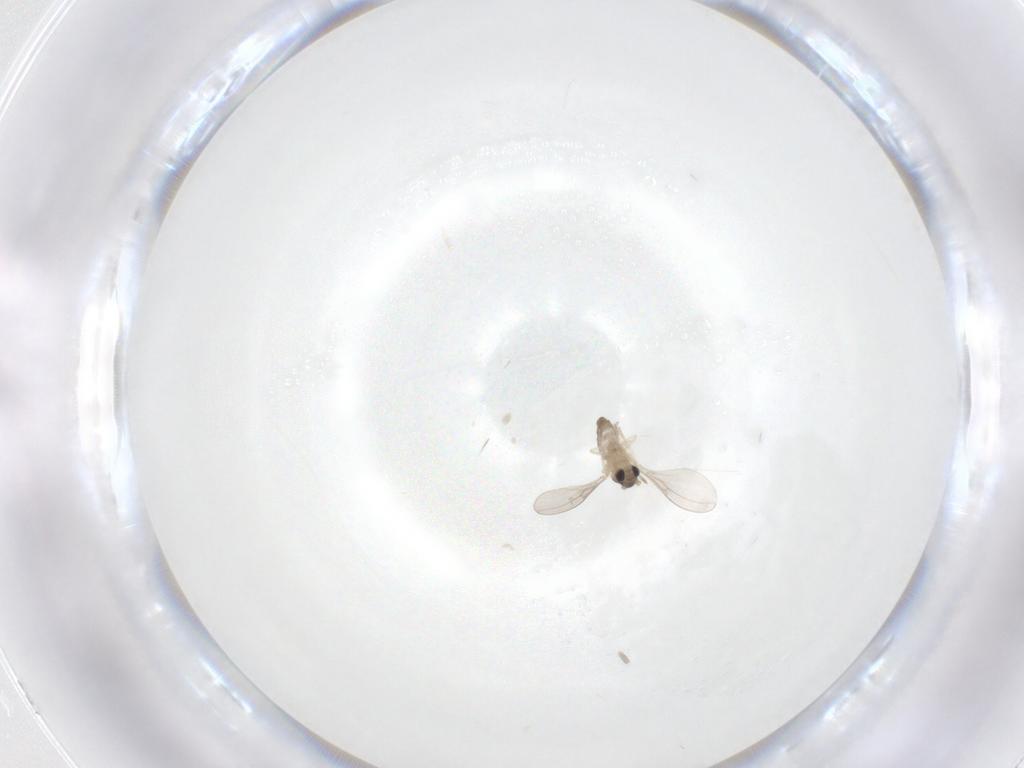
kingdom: Animalia
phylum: Arthropoda
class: Insecta
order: Diptera
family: Cecidomyiidae
